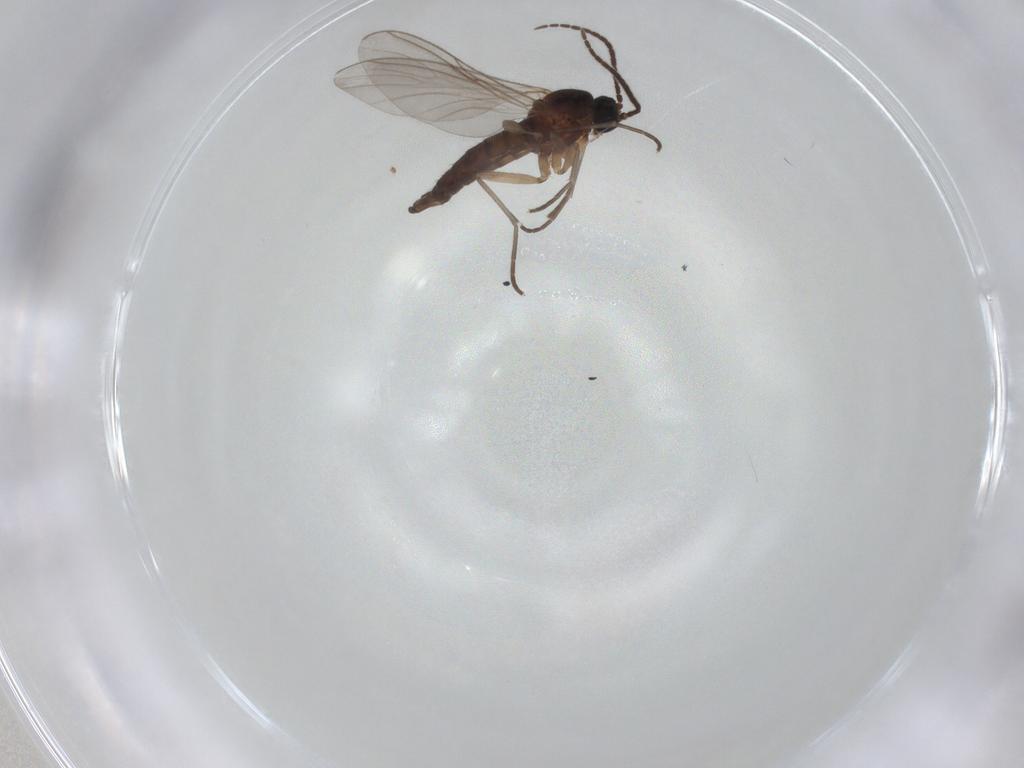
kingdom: Animalia
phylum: Arthropoda
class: Insecta
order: Diptera
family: Sciaridae
